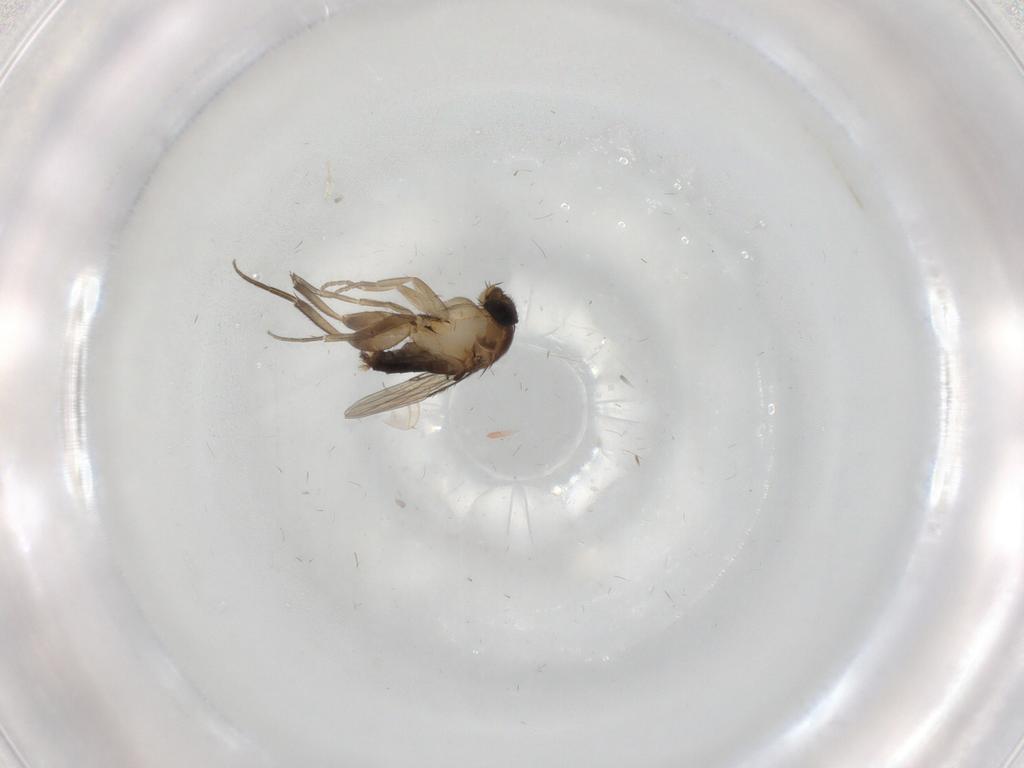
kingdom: Animalia
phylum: Arthropoda
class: Insecta
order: Diptera
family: Phoridae
